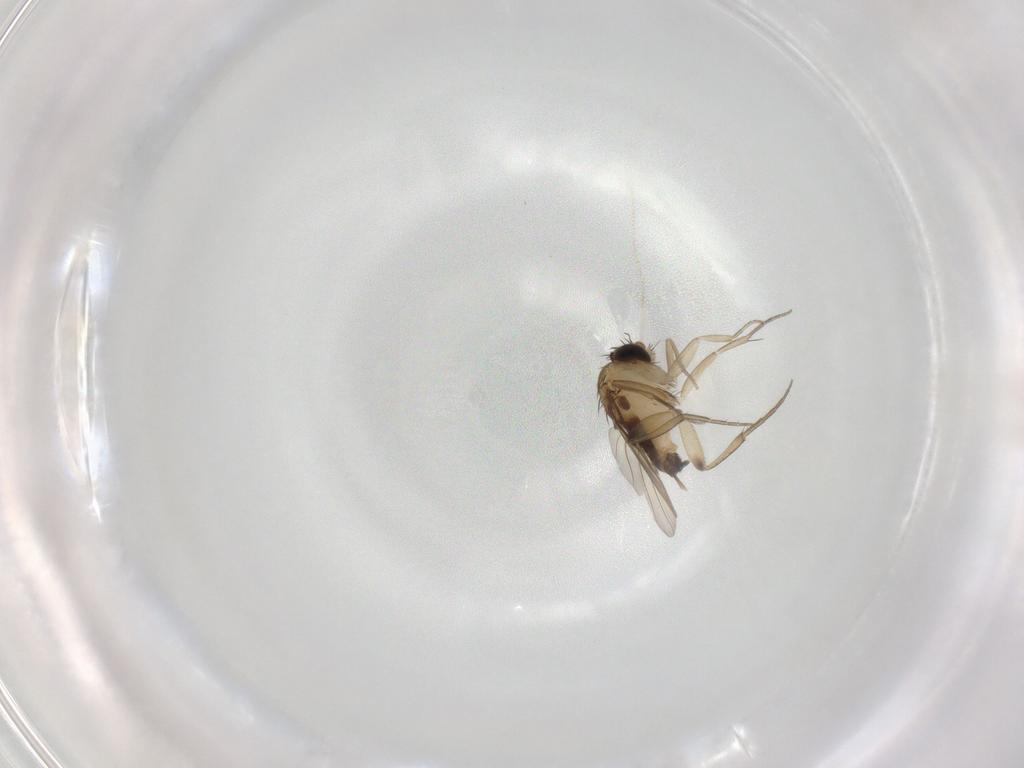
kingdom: Animalia
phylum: Arthropoda
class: Insecta
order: Diptera
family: Phoridae
